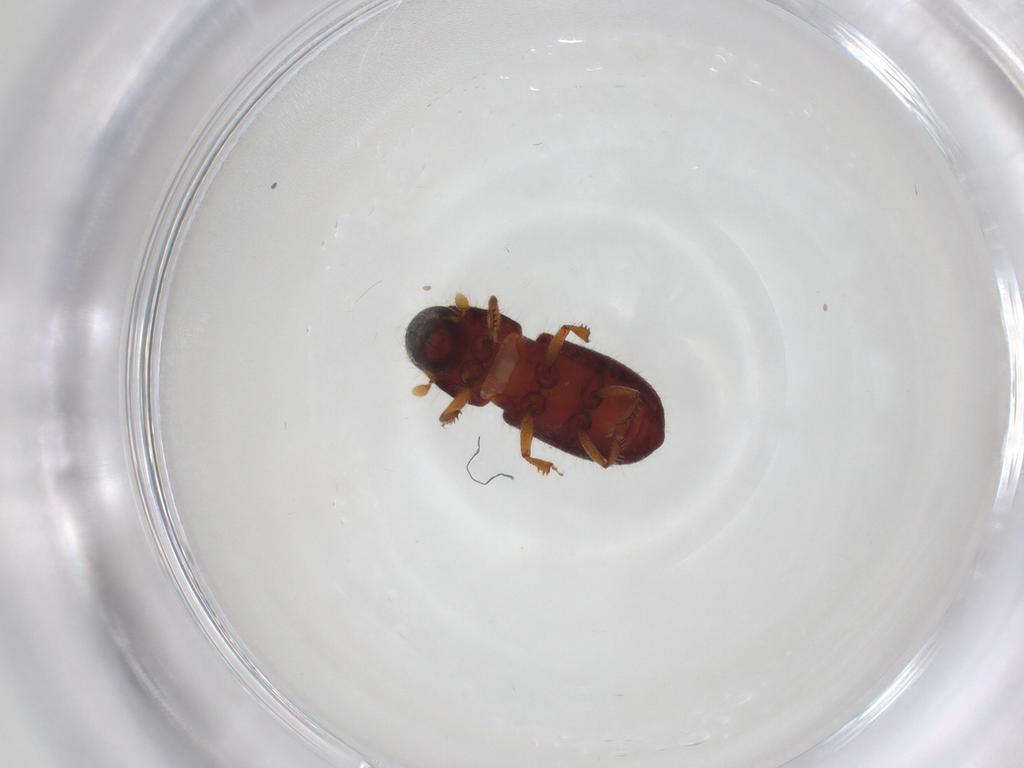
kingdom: Animalia
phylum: Arthropoda
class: Insecta
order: Coleoptera
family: Curculionidae
